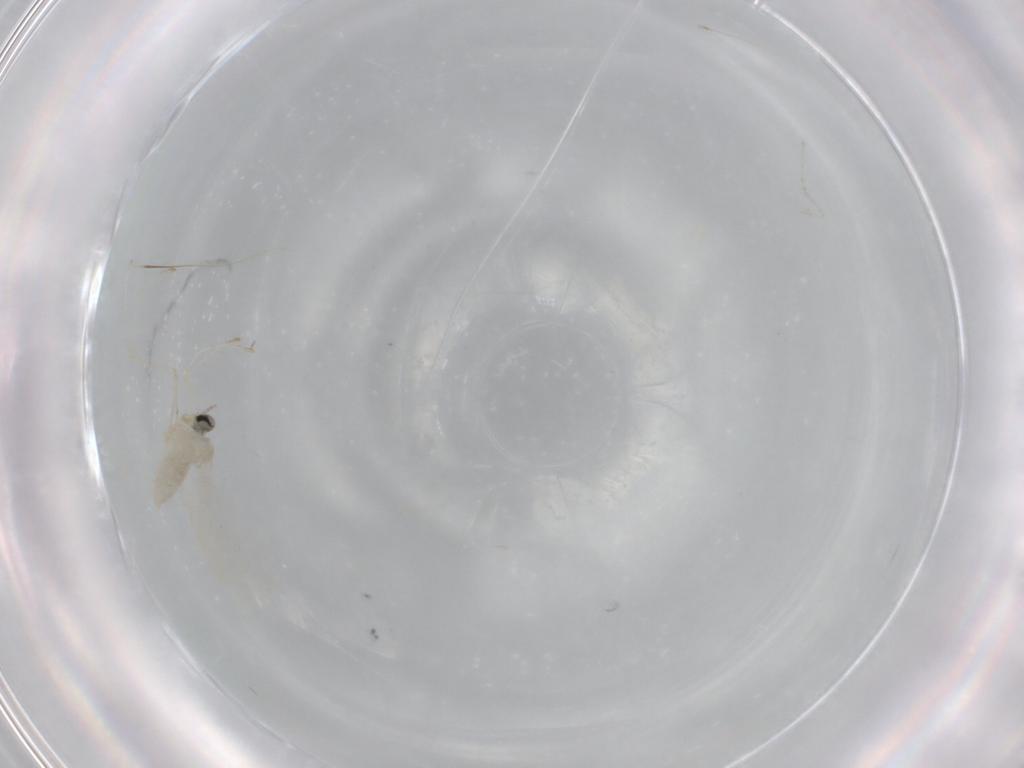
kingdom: Animalia
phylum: Arthropoda
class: Insecta
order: Diptera
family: Cecidomyiidae
